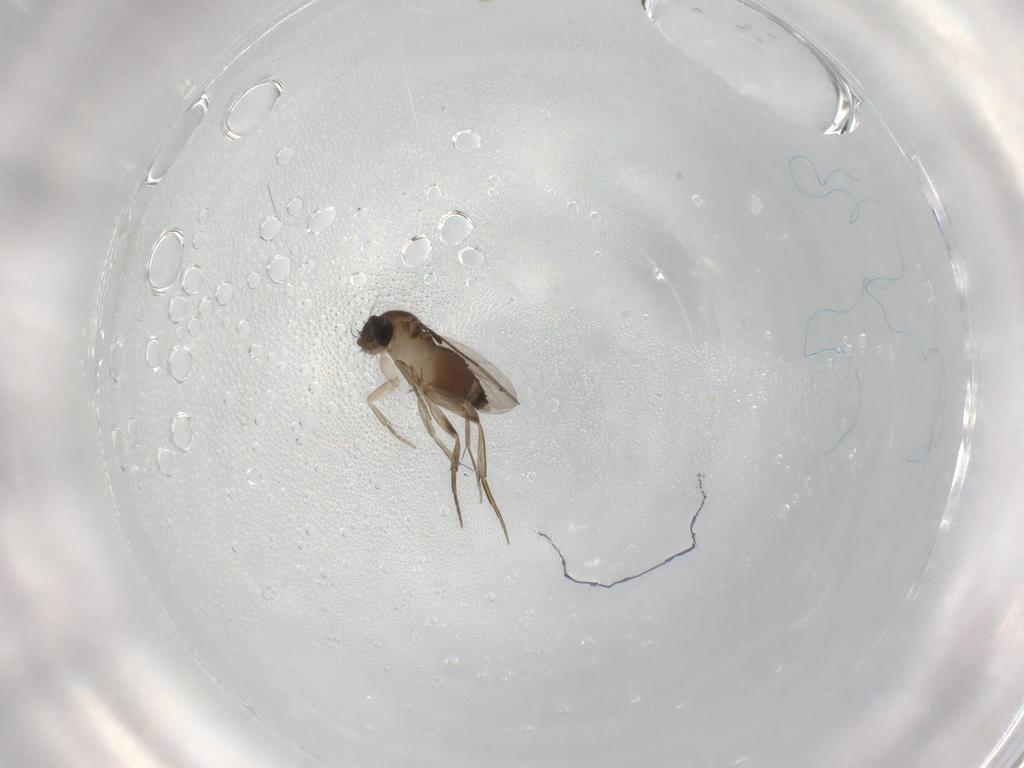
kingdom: Animalia
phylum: Arthropoda
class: Insecta
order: Diptera
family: Phoridae
